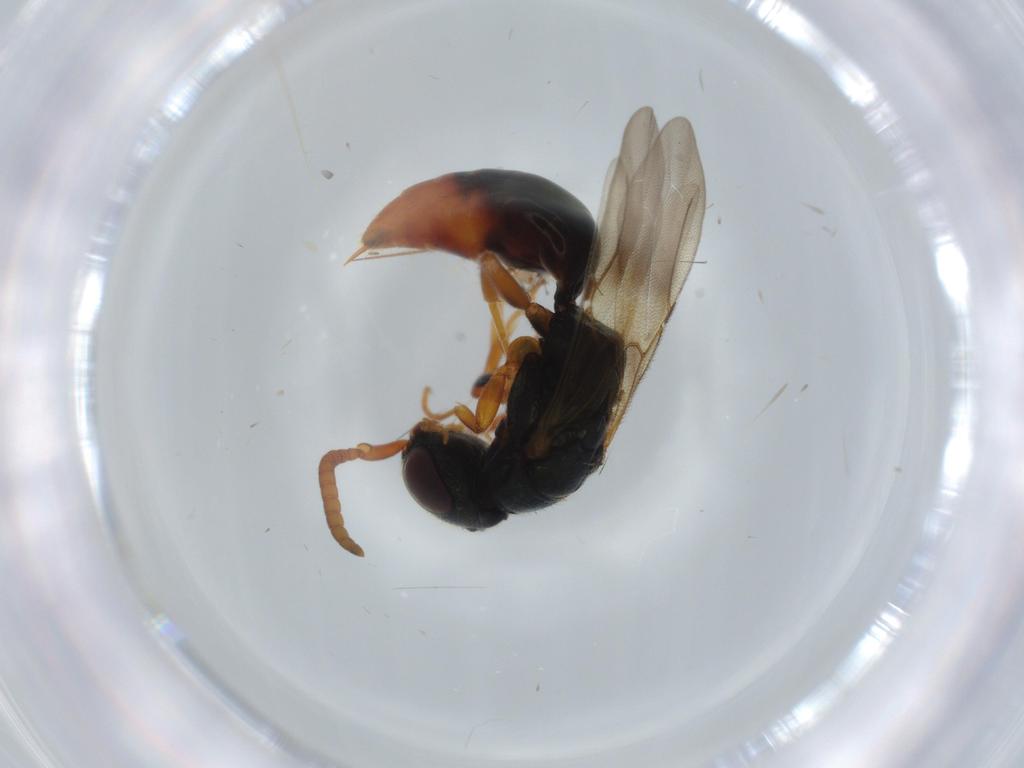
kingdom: Animalia
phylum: Arthropoda
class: Insecta
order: Hymenoptera
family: Bethylidae
